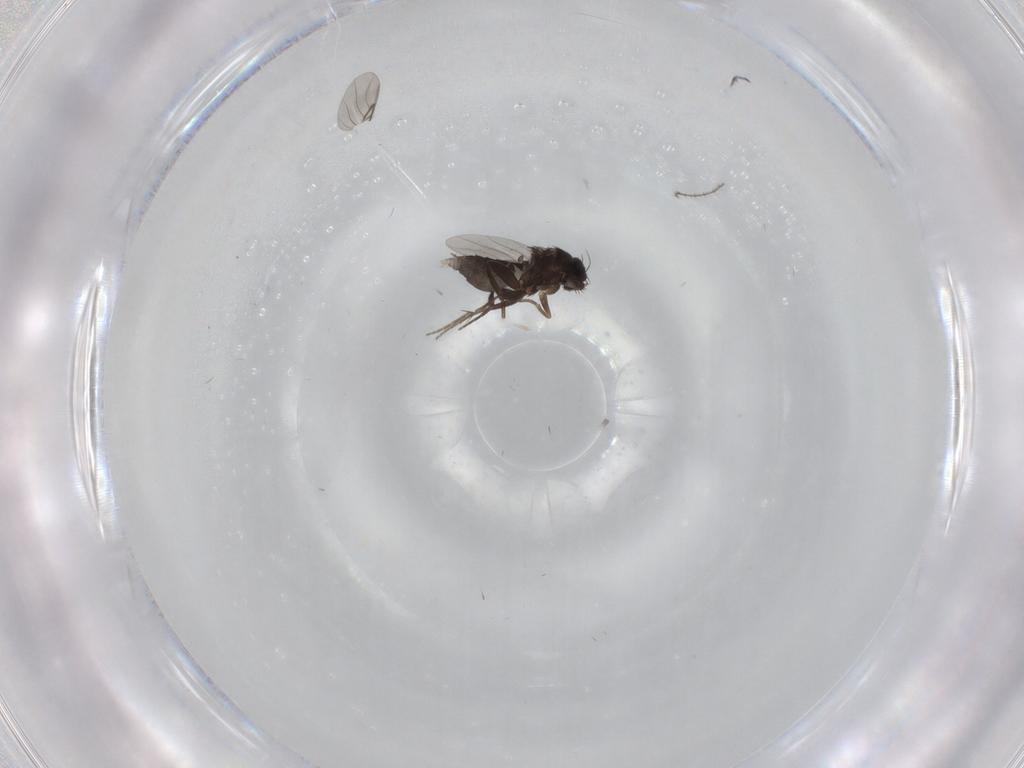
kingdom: Animalia
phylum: Arthropoda
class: Insecta
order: Diptera
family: Phoridae
